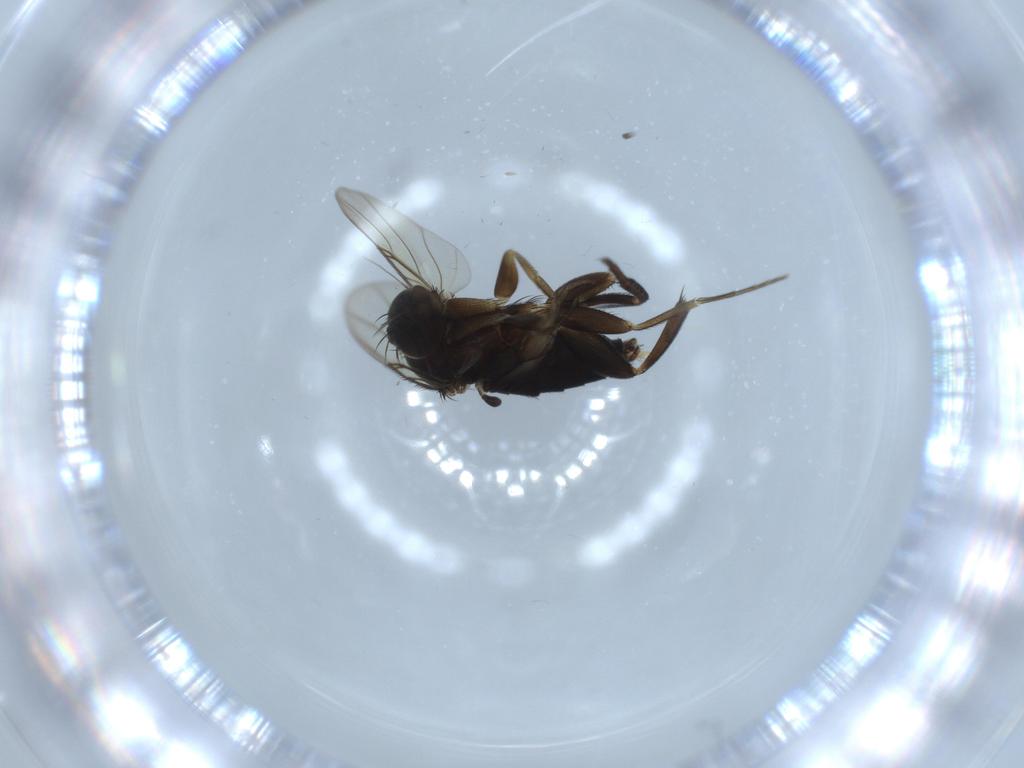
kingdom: Animalia
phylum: Arthropoda
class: Insecta
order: Diptera
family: Phoridae
